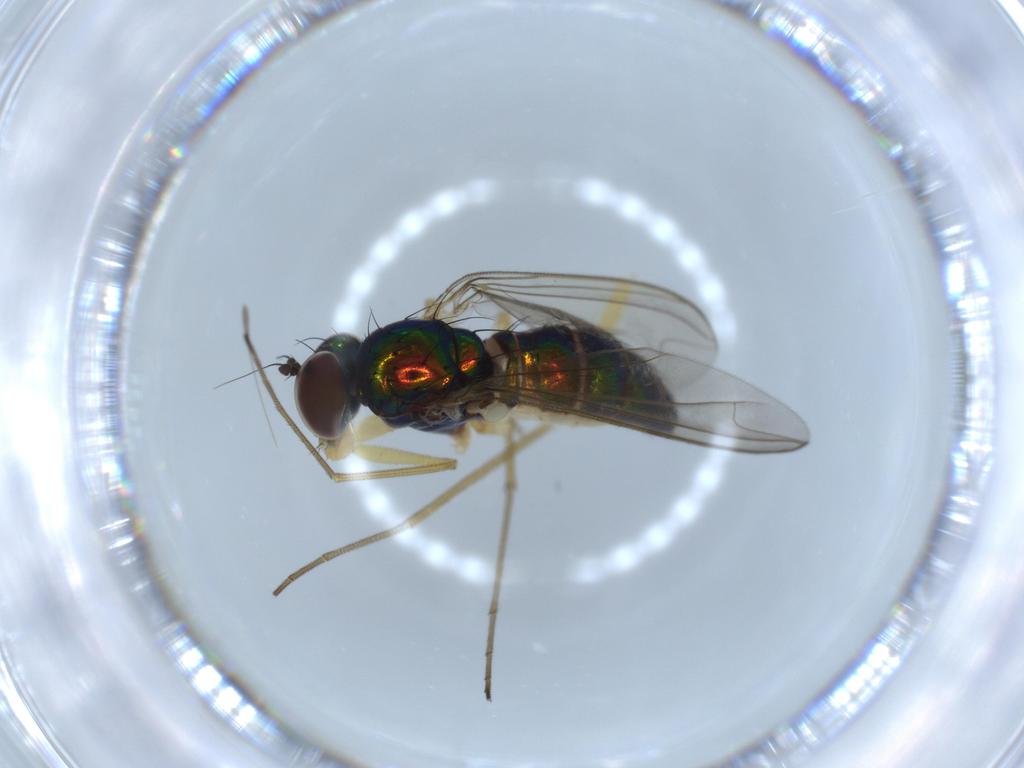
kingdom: Animalia
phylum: Arthropoda
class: Insecta
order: Diptera
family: Dolichopodidae
